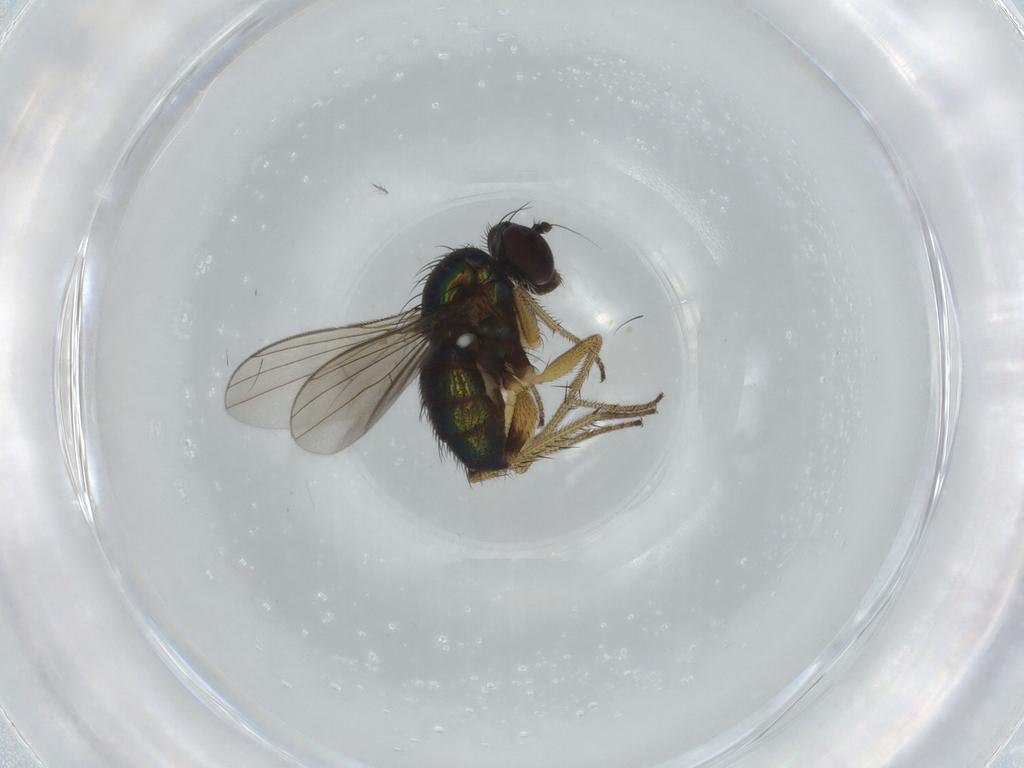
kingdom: Animalia
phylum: Arthropoda
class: Insecta
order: Diptera
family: Dolichopodidae
